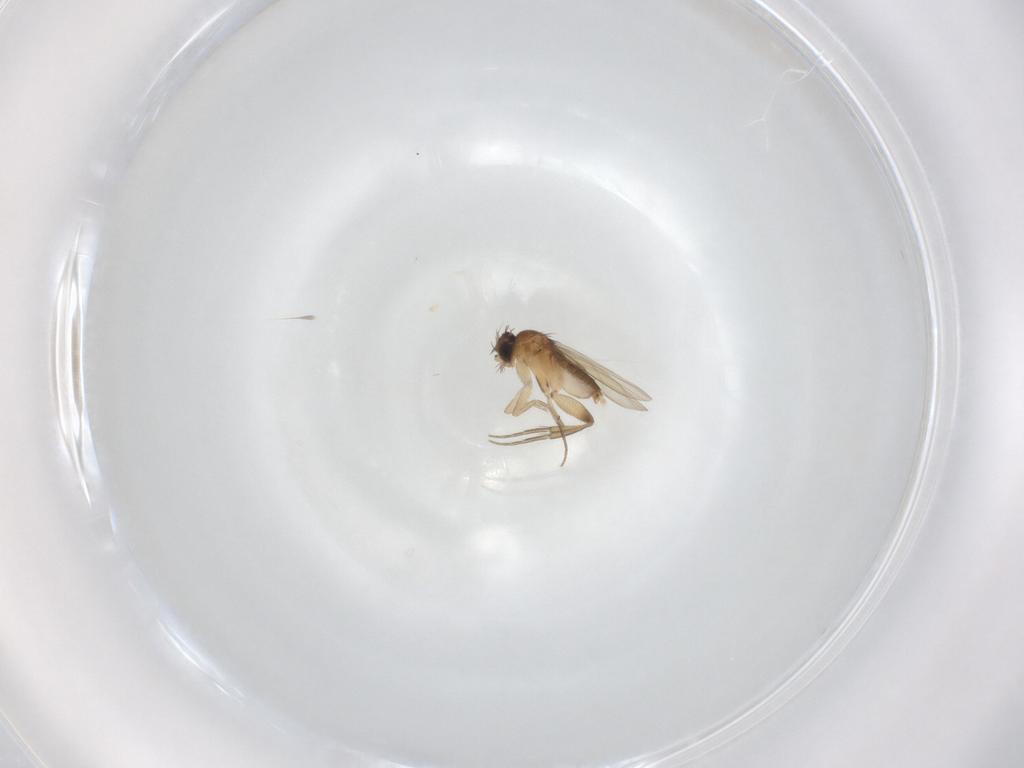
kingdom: Animalia
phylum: Arthropoda
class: Insecta
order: Diptera
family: Phoridae
